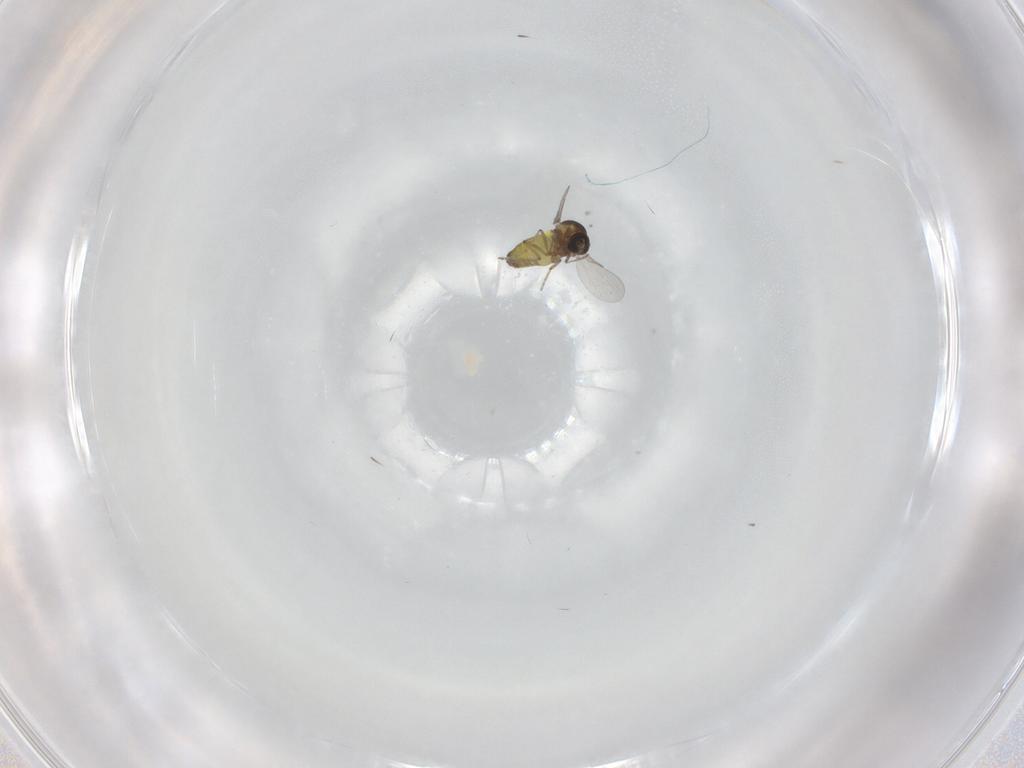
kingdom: Animalia
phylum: Arthropoda
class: Insecta
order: Diptera
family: Ceratopogonidae
